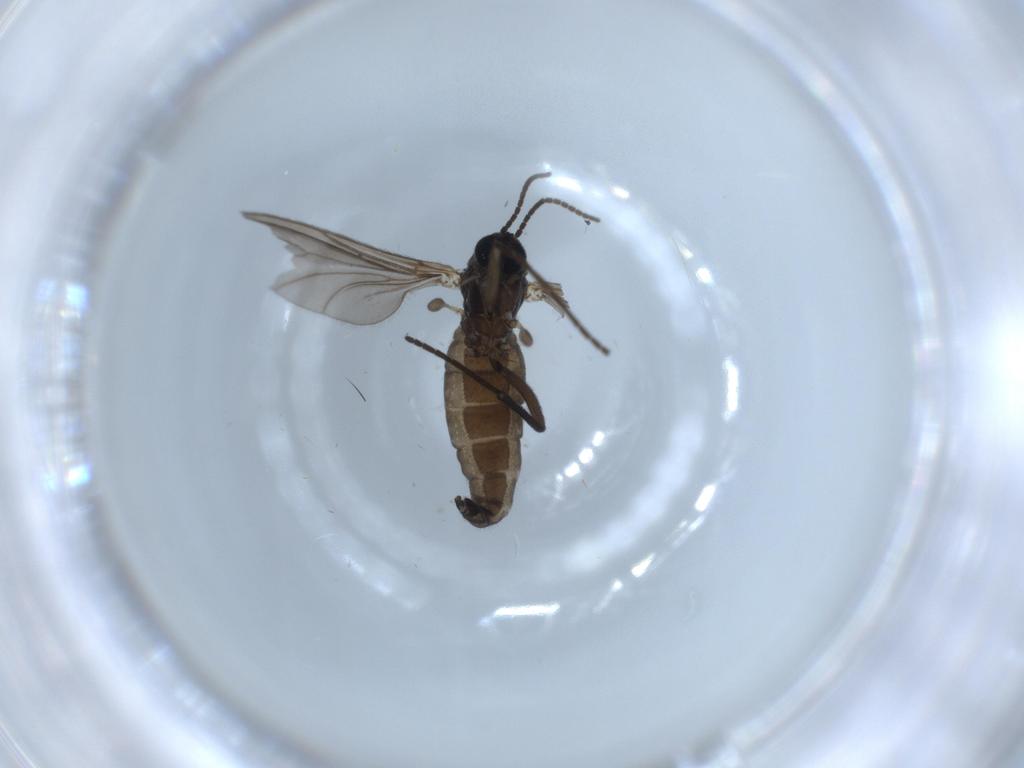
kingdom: Animalia
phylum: Arthropoda
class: Insecta
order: Diptera
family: Sciaridae
